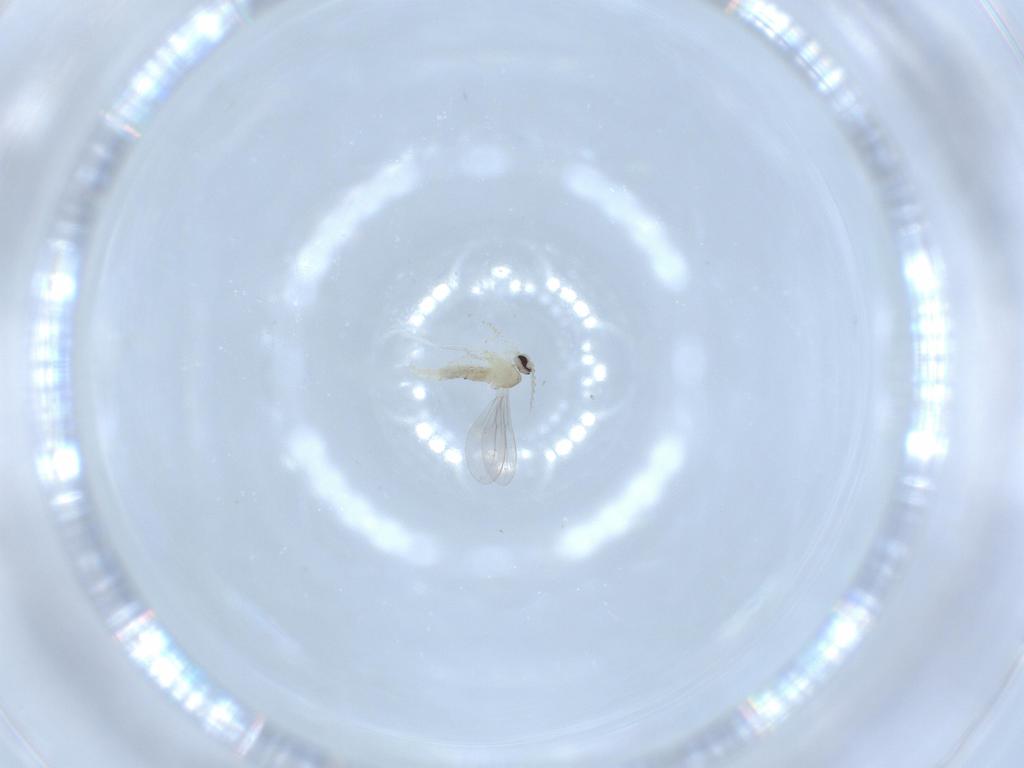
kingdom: Animalia
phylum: Arthropoda
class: Insecta
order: Diptera
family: Cecidomyiidae
